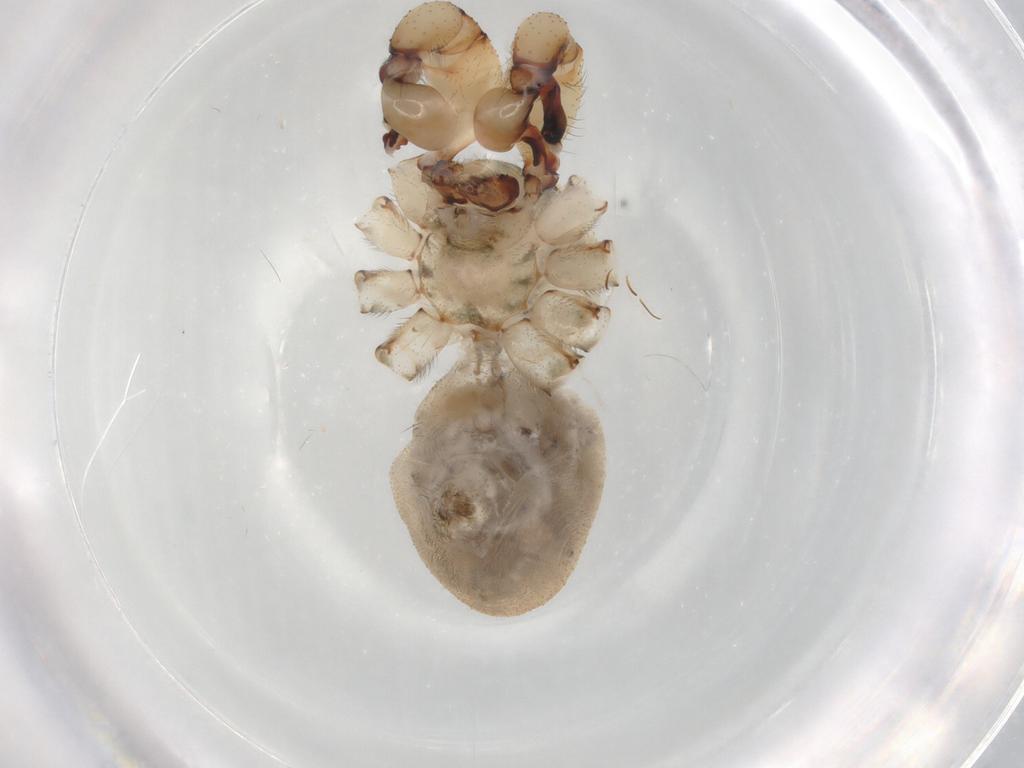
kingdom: Animalia
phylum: Arthropoda
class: Arachnida
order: Araneae
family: Pholcidae
